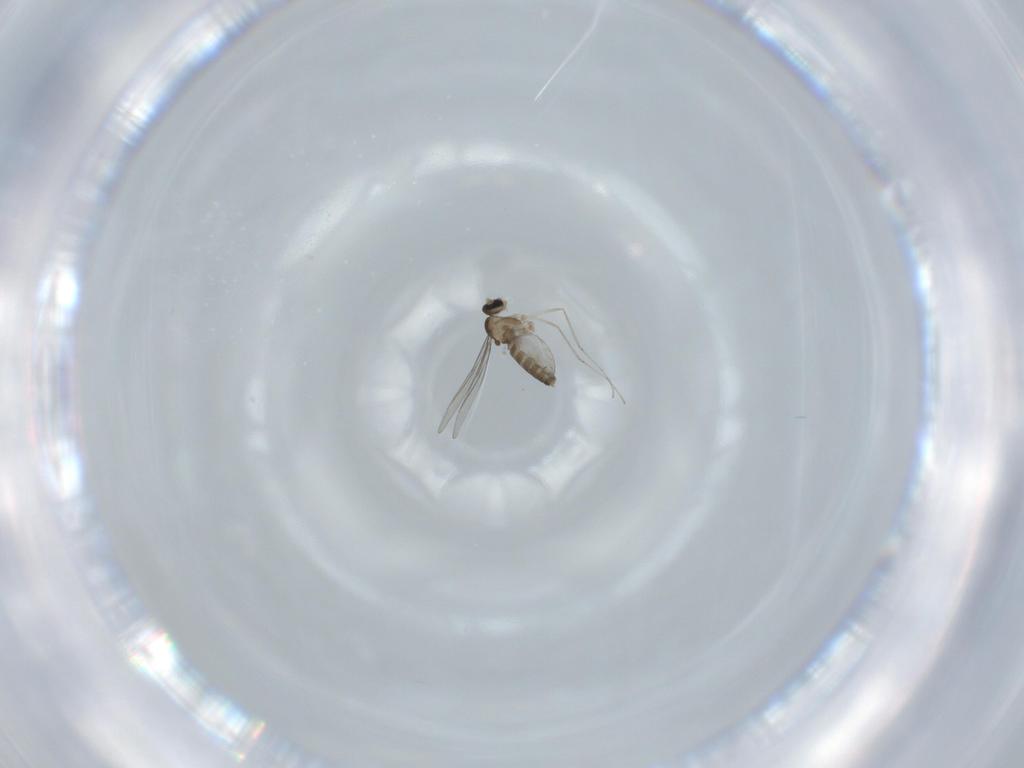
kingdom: Animalia
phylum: Arthropoda
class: Insecta
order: Diptera
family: Cecidomyiidae
